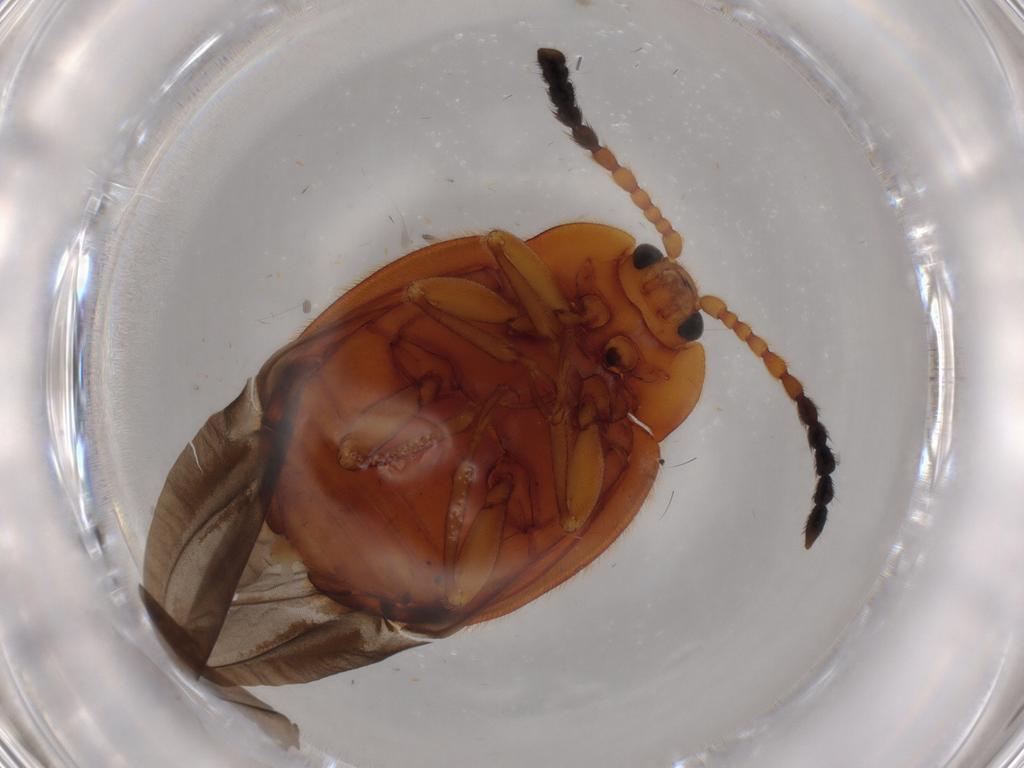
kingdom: Animalia
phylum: Arthropoda
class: Insecta
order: Coleoptera
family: Endomychidae
